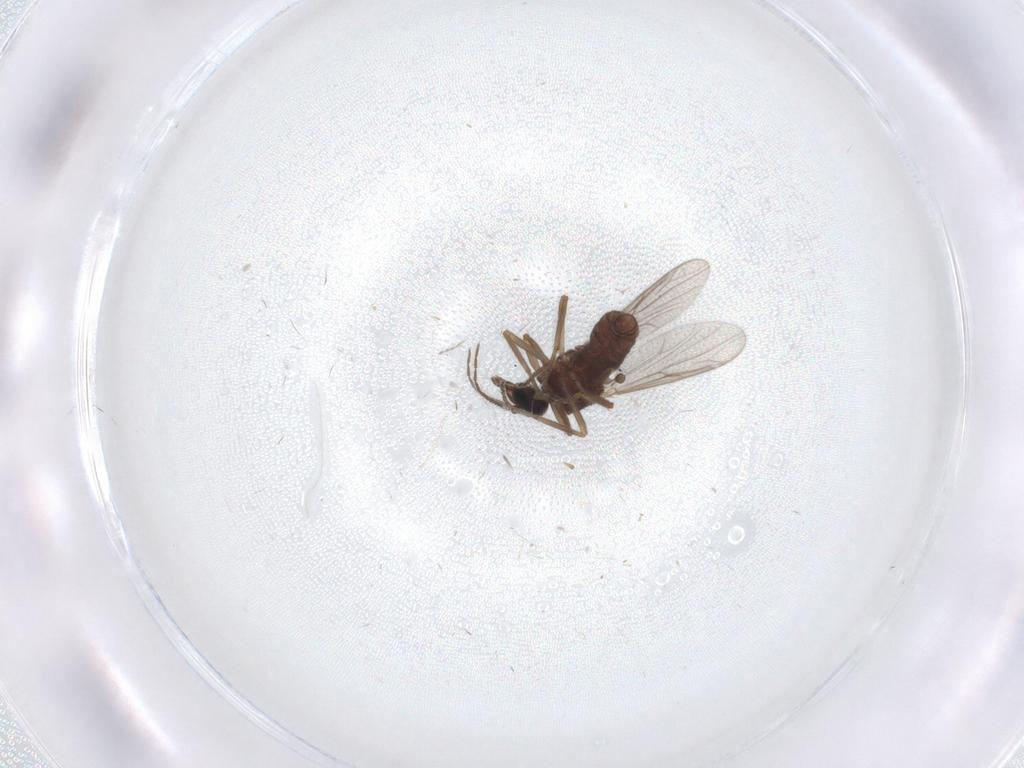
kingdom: Animalia
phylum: Arthropoda
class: Insecta
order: Diptera
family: Ceratopogonidae
